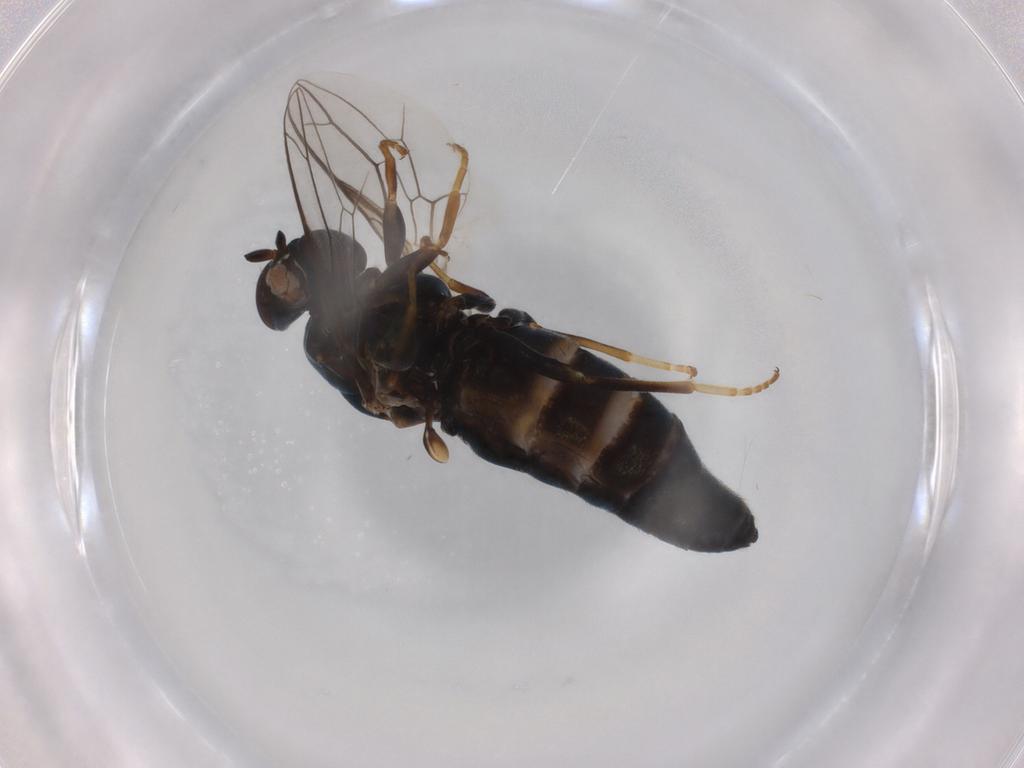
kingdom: Animalia
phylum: Arthropoda
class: Insecta
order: Diptera
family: Scenopinidae
